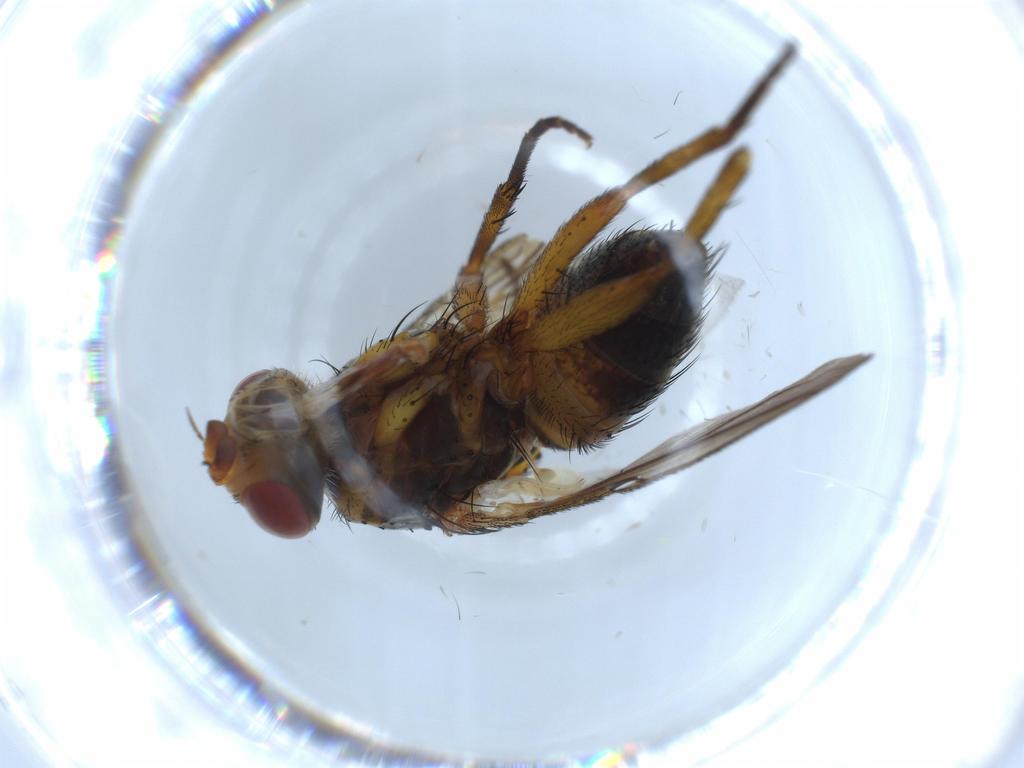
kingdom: Animalia
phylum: Arthropoda
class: Insecta
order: Diptera
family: Tachinidae
